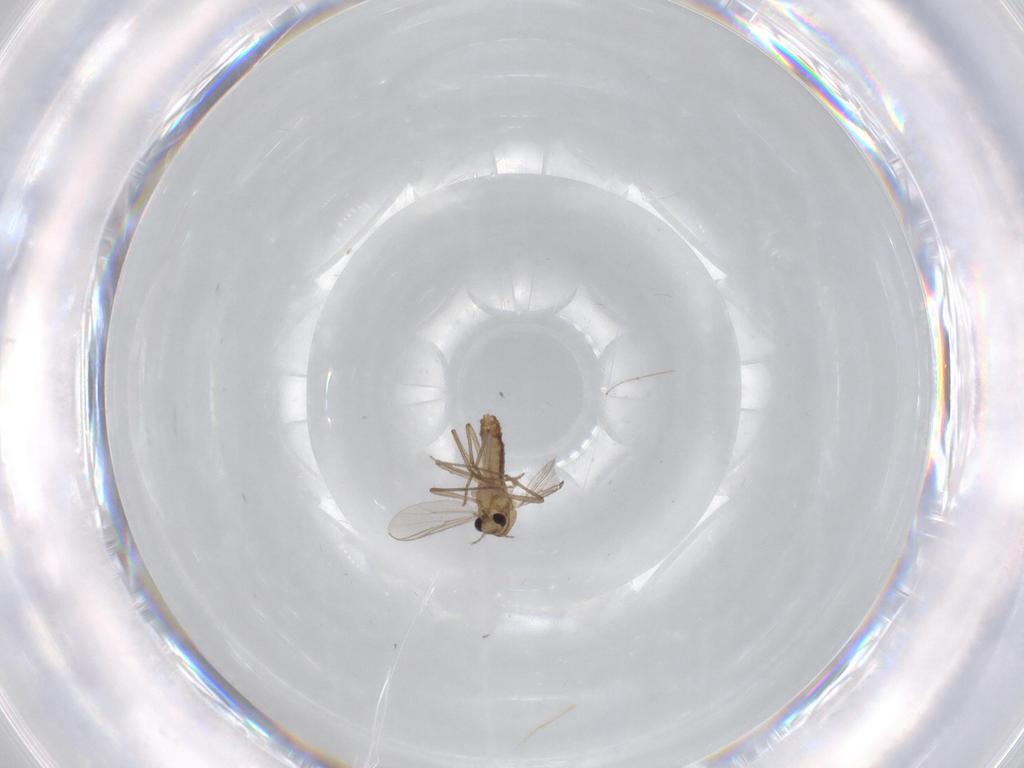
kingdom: Animalia
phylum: Arthropoda
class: Insecta
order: Diptera
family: Chironomidae
